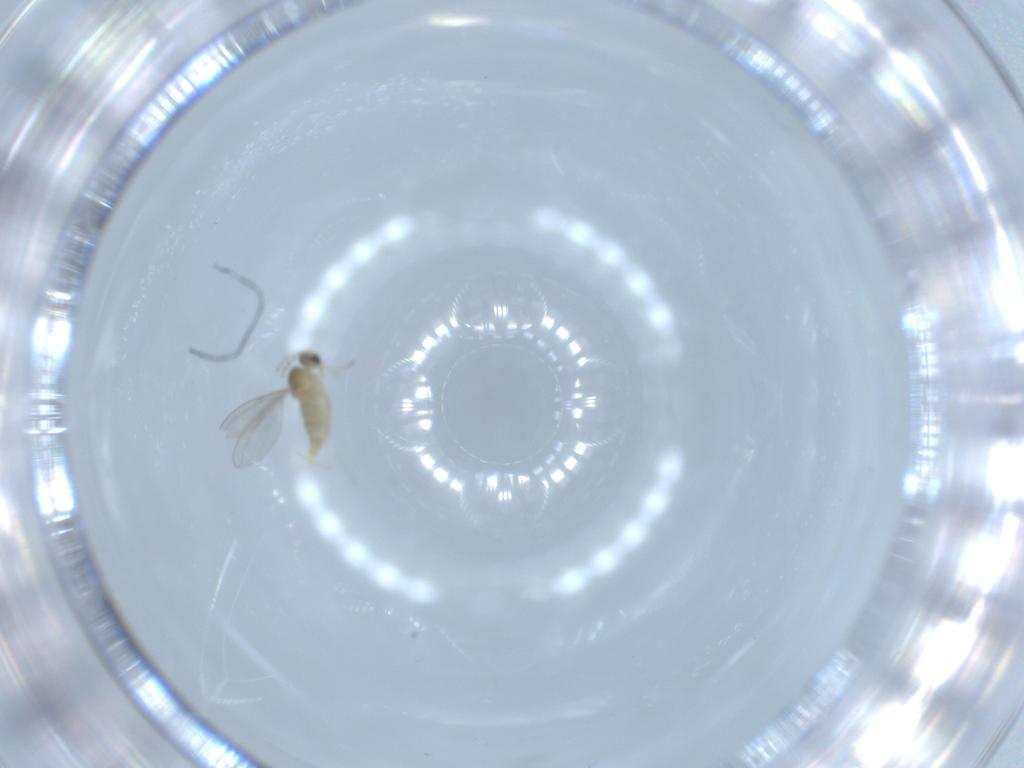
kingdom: Animalia
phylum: Arthropoda
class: Insecta
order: Diptera
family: Cecidomyiidae
